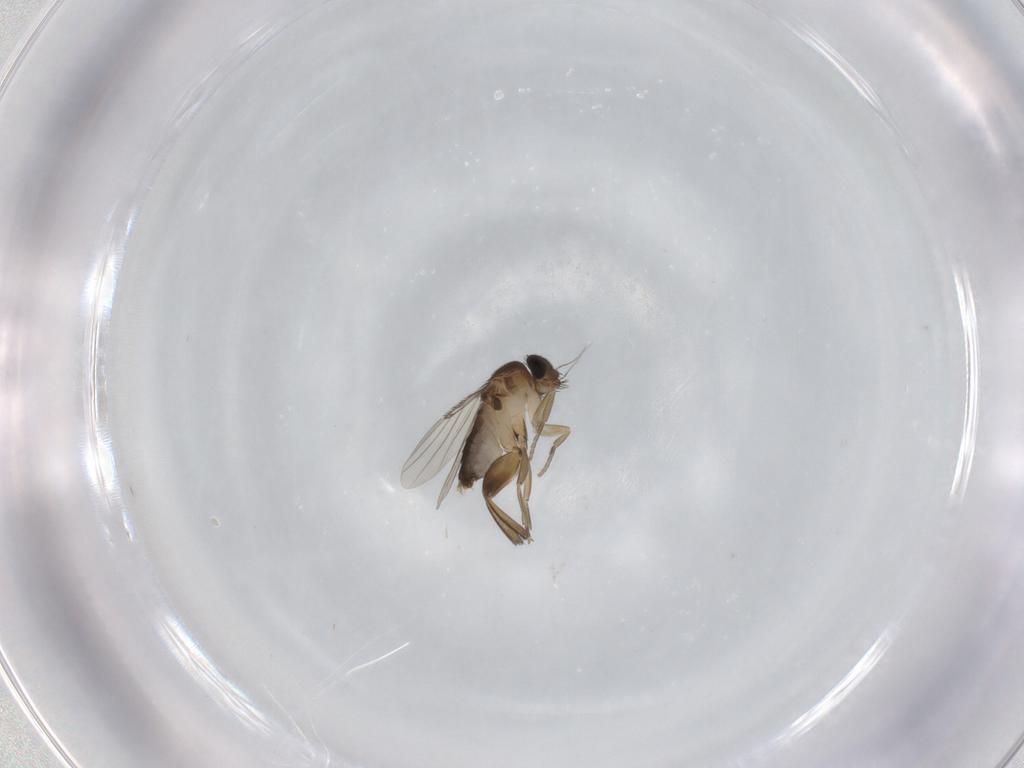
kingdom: Animalia
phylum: Arthropoda
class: Insecta
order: Diptera
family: Phoridae
